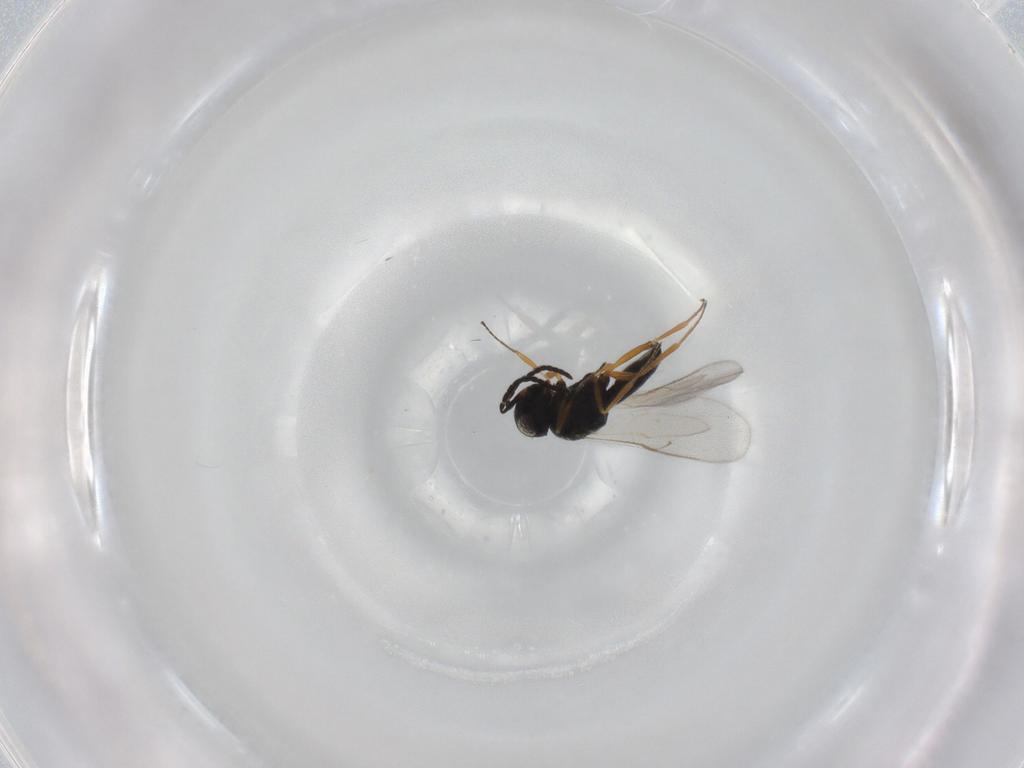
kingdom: Animalia
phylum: Arthropoda
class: Insecta
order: Hymenoptera
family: Scelionidae
